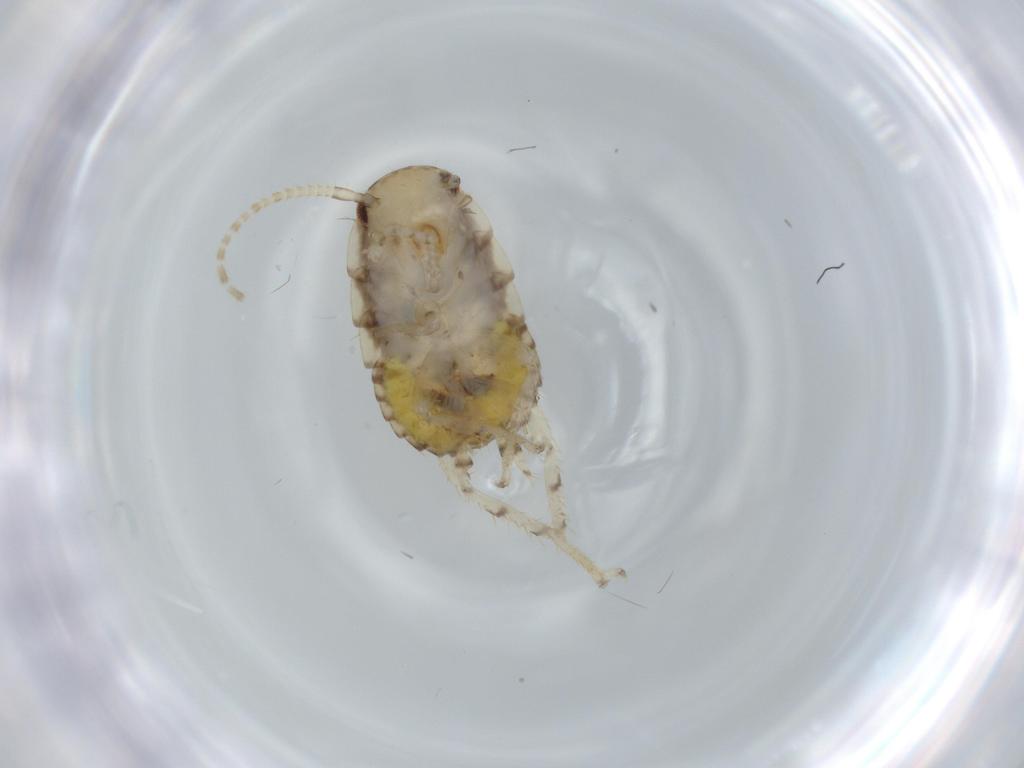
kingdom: Animalia
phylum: Arthropoda
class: Insecta
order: Blattodea
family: Ectobiidae
